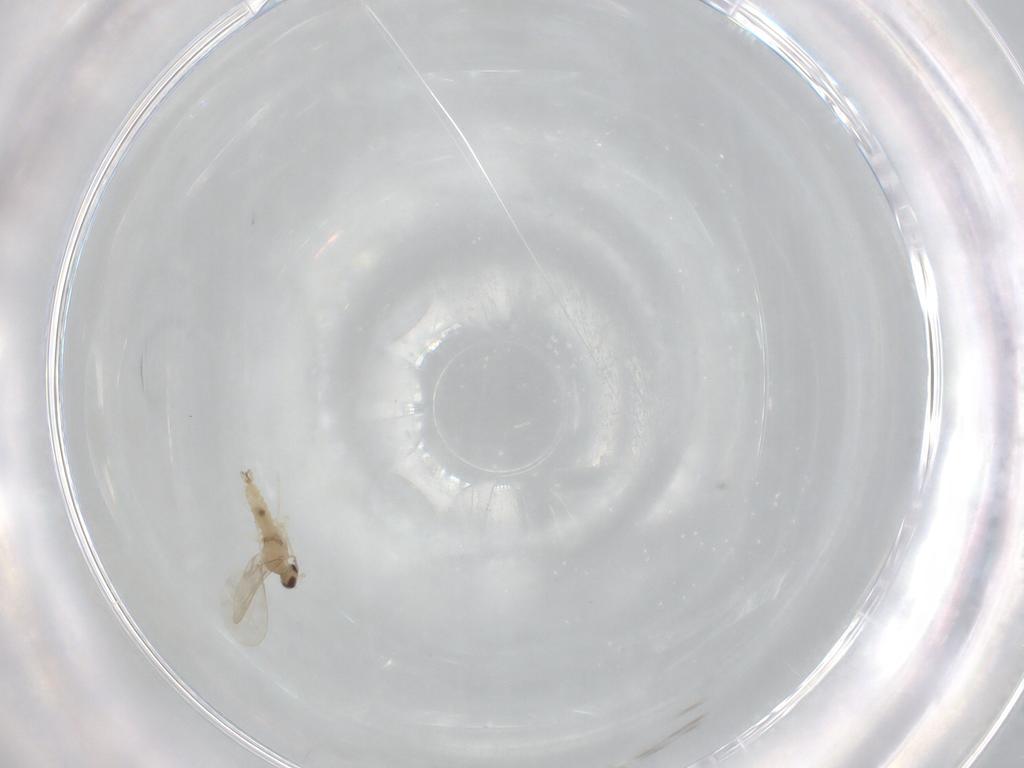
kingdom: Animalia
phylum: Arthropoda
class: Insecta
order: Diptera
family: Cecidomyiidae
